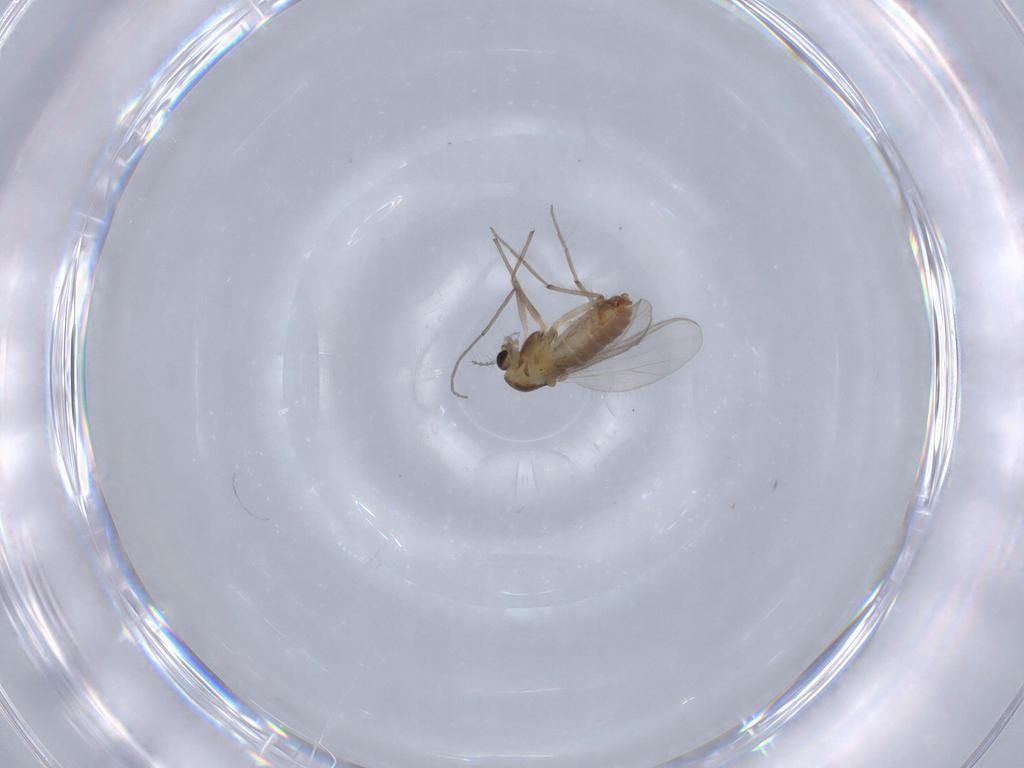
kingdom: Animalia
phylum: Arthropoda
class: Insecta
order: Diptera
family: Chironomidae
